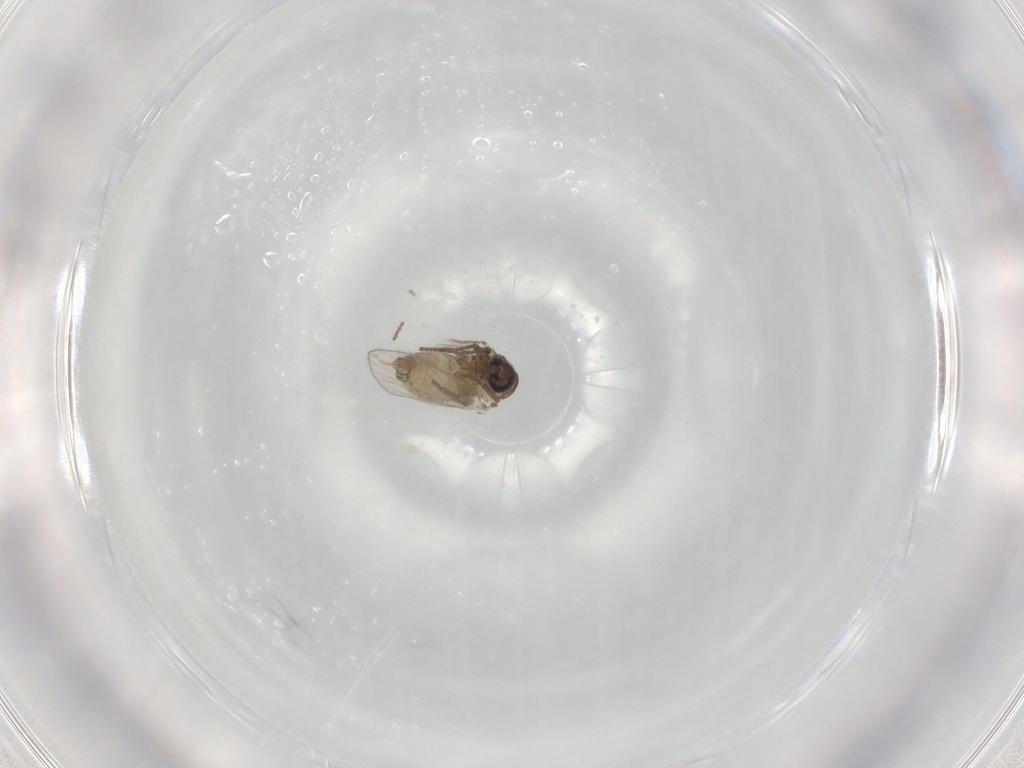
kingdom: Animalia
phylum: Arthropoda
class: Insecta
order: Diptera
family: Psychodidae
